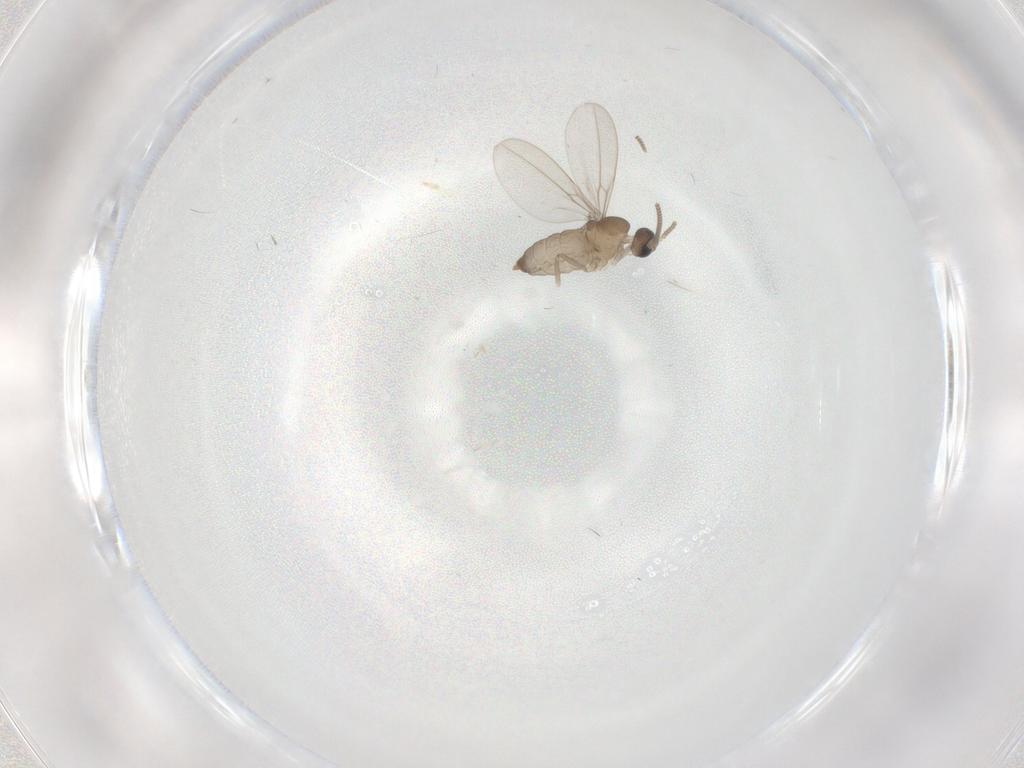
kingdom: Animalia
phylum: Arthropoda
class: Insecta
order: Diptera
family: Cecidomyiidae
